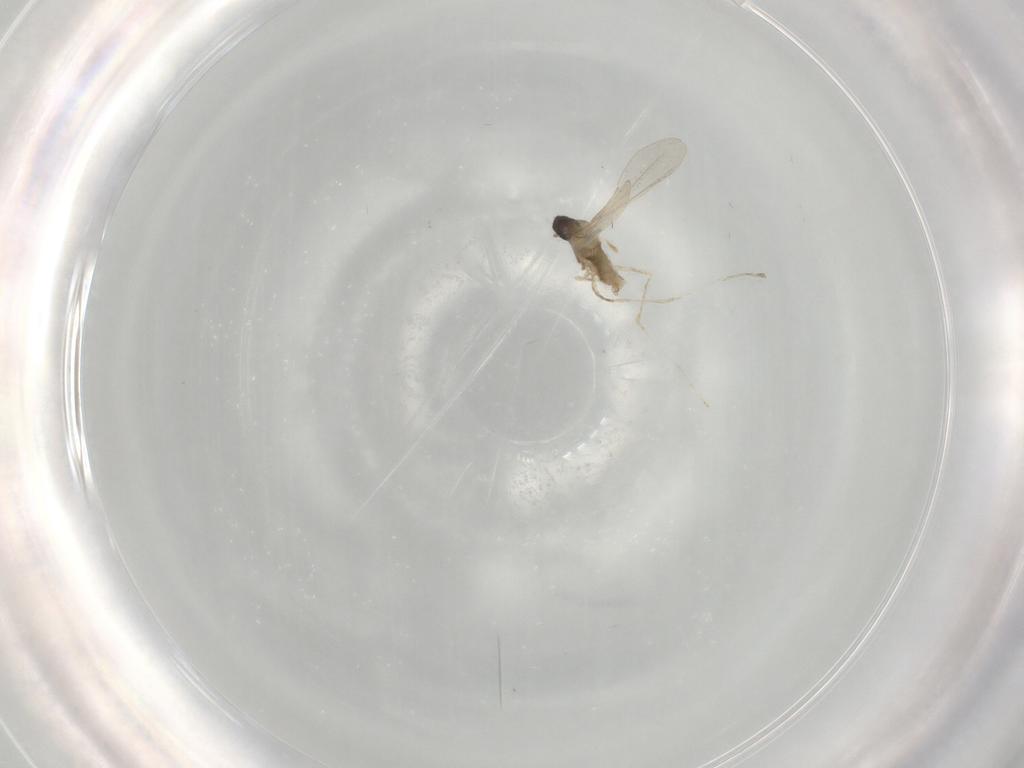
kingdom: Animalia
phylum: Arthropoda
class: Insecta
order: Diptera
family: Cecidomyiidae
